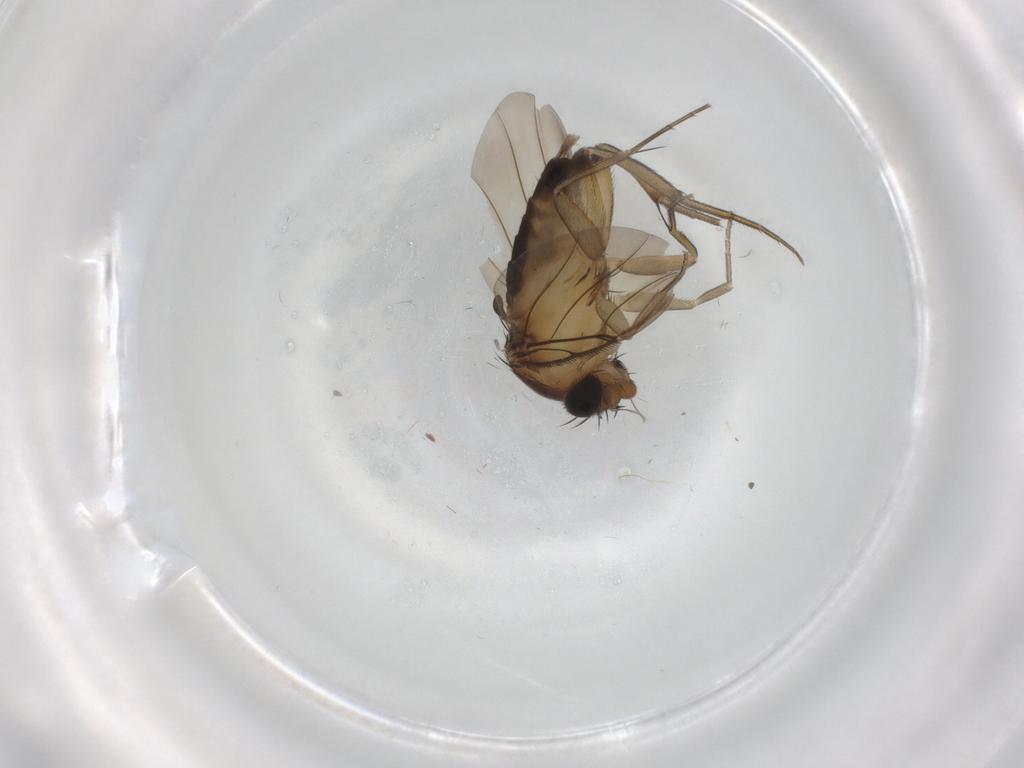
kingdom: Animalia
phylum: Arthropoda
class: Insecta
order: Diptera
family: Phoridae
